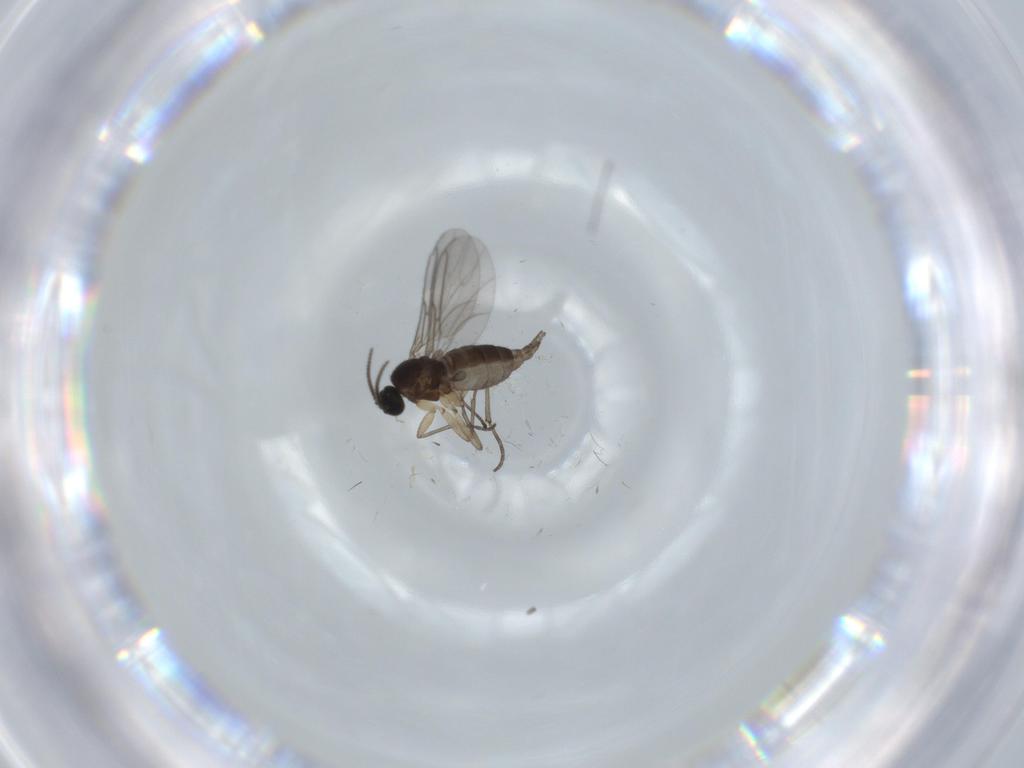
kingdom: Animalia
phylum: Arthropoda
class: Insecta
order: Diptera
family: Sciaridae
